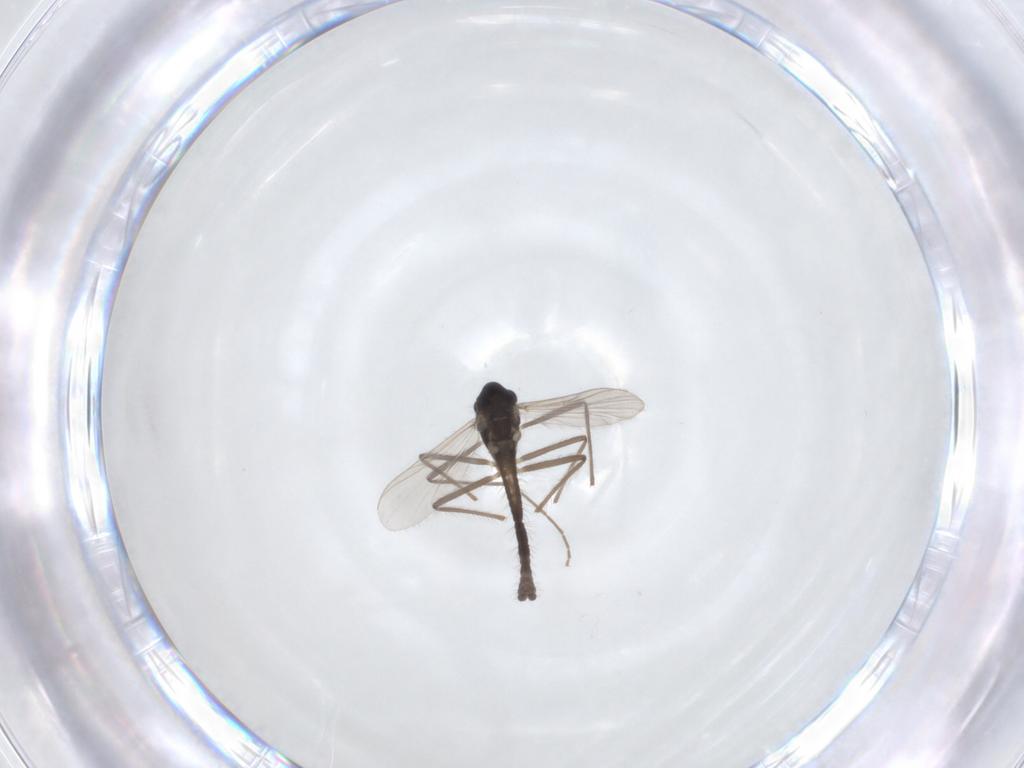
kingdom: Animalia
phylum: Arthropoda
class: Insecta
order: Diptera
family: Chironomidae
